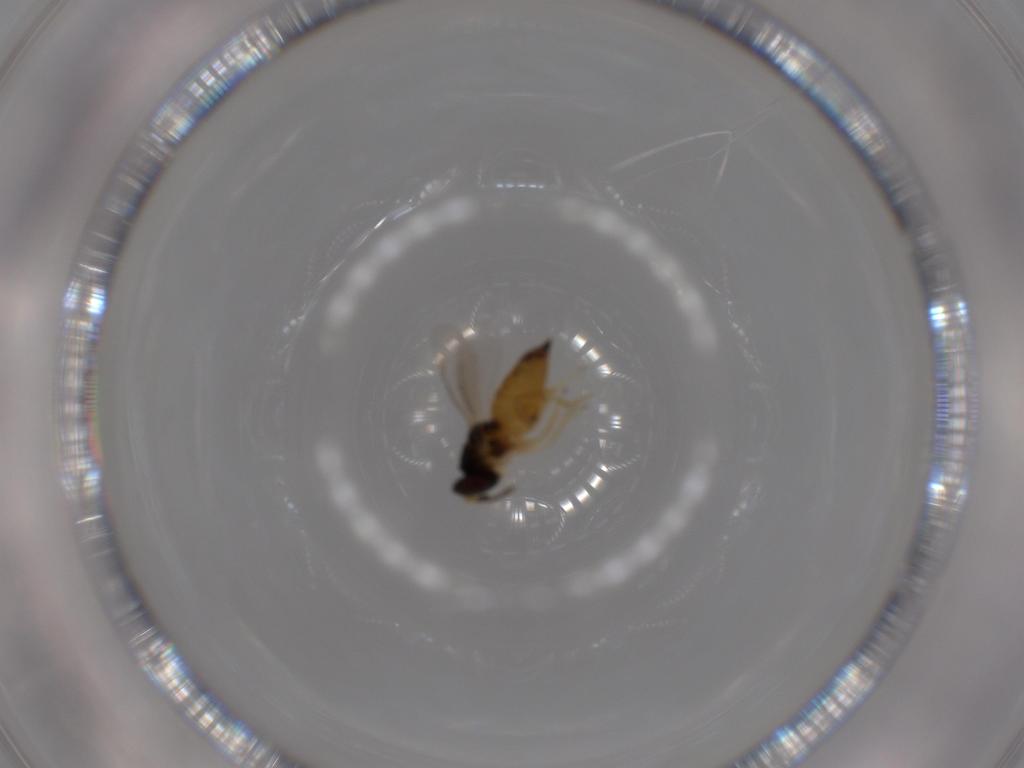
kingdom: Animalia
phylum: Arthropoda
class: Insecta
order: Hymenoptera
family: Eulophidae
